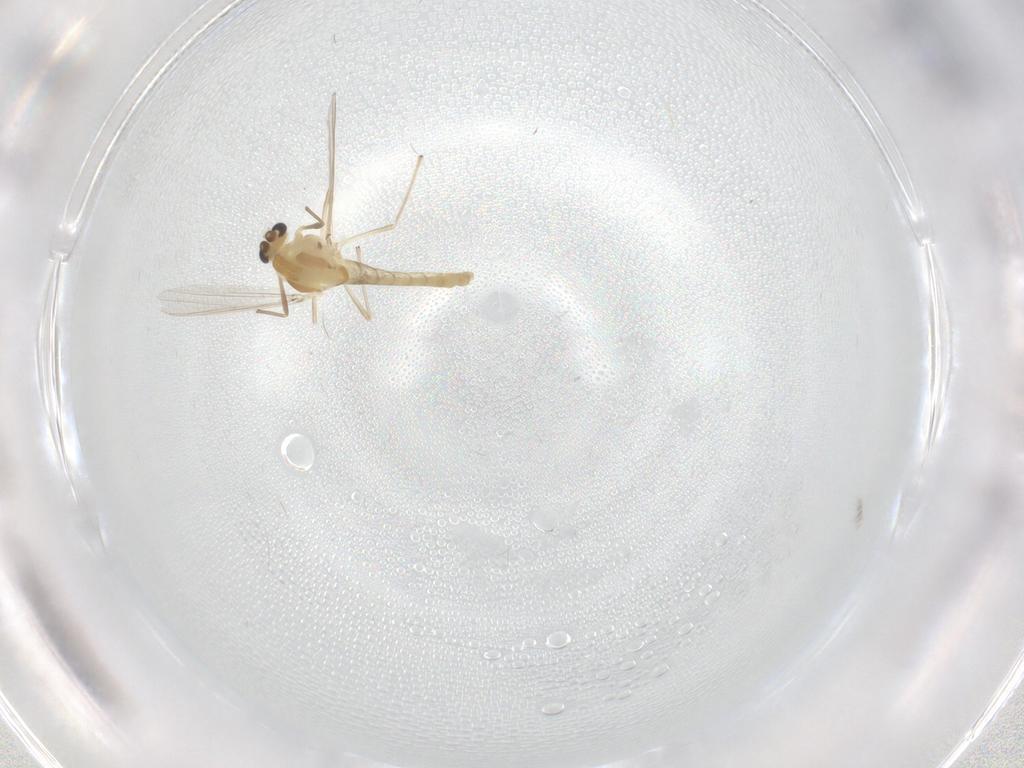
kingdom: Animalia
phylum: Arthropoda
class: Insecta
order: Diptera
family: Chironomidae
